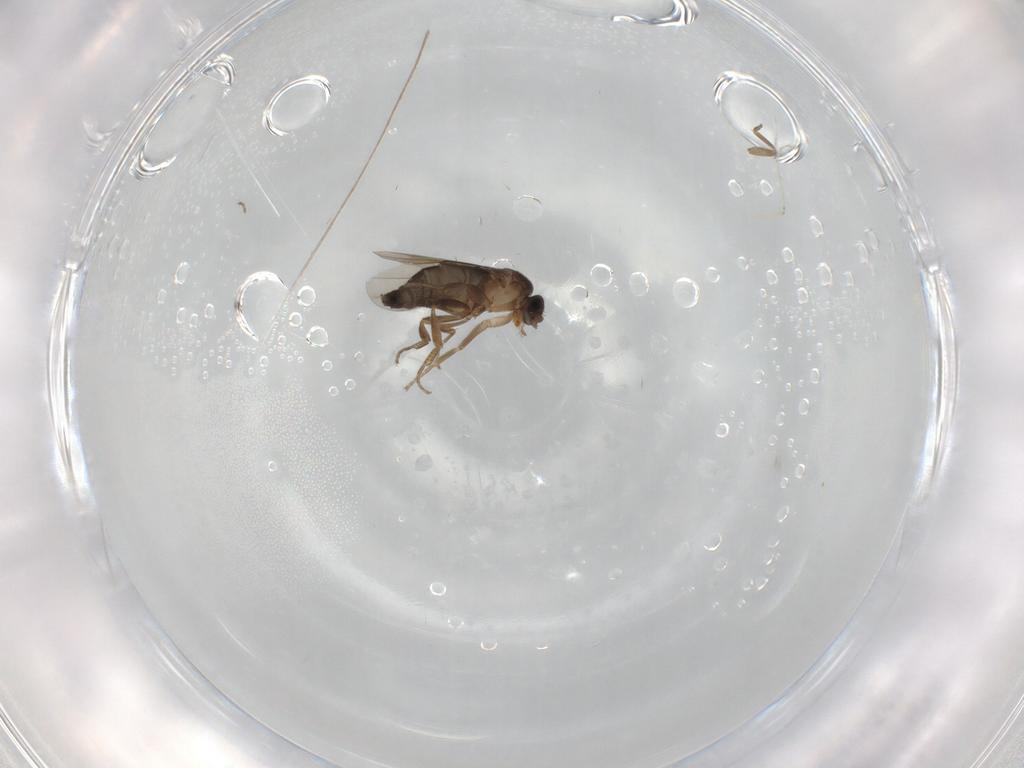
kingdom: Animalia
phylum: Arthropoda
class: Insecta
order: Diptera
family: Phoridae
